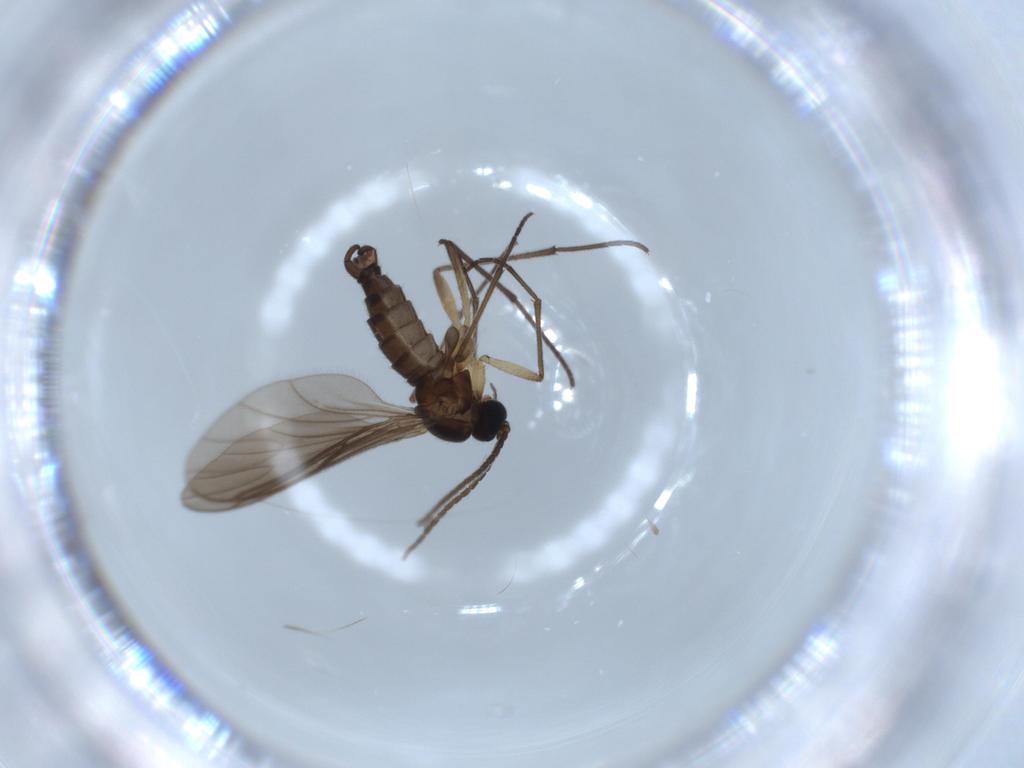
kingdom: Animalia
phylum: Arthropoda
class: Insecta
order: Diptera
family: Sciaridae
